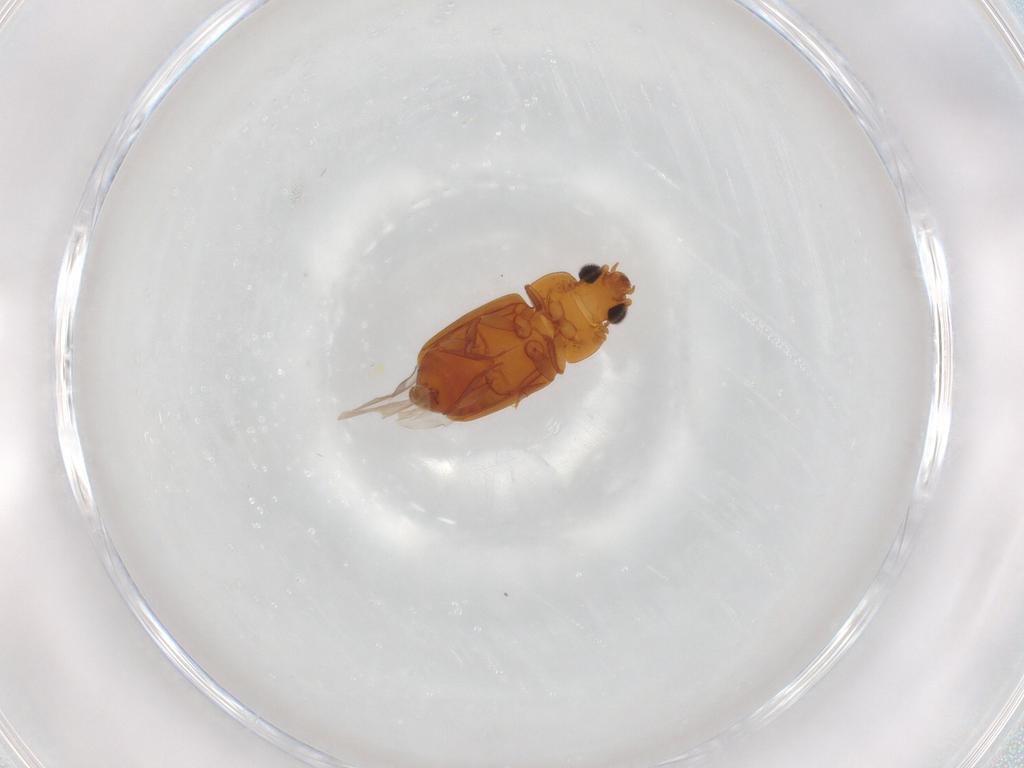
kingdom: Animalia
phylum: Arthropoda
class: Insecta
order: Coleoptera
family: Nitidulidae
